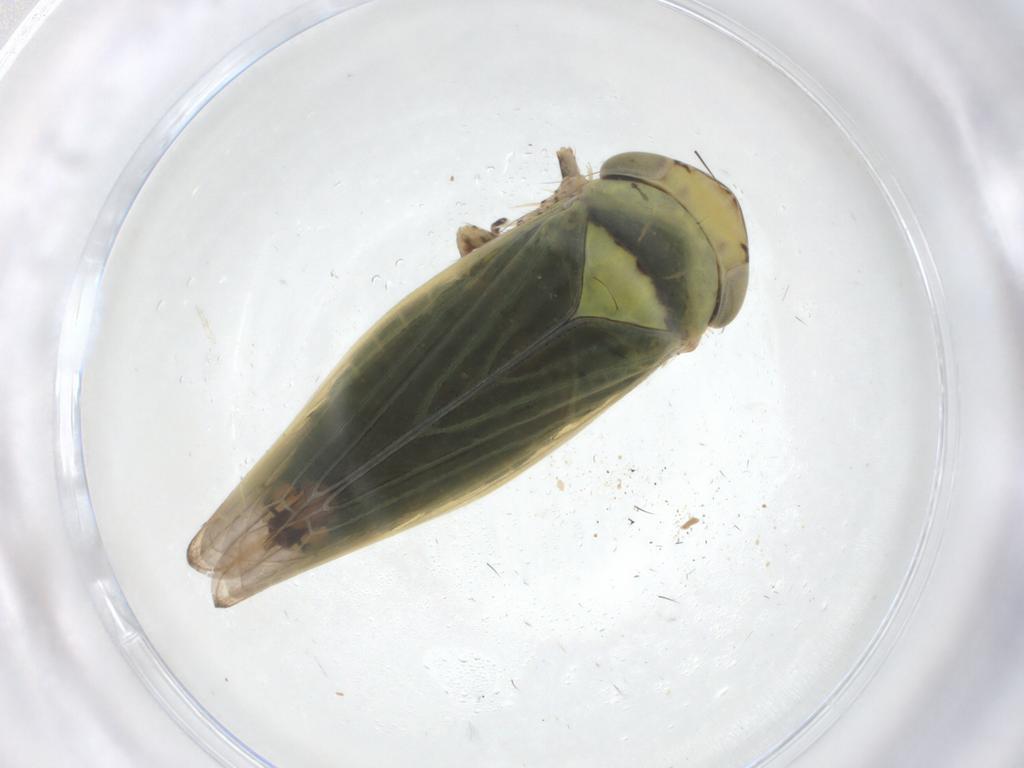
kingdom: Animalia
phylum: Arthropoda
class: Insecta
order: Hemiptera
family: Cicadellidae
